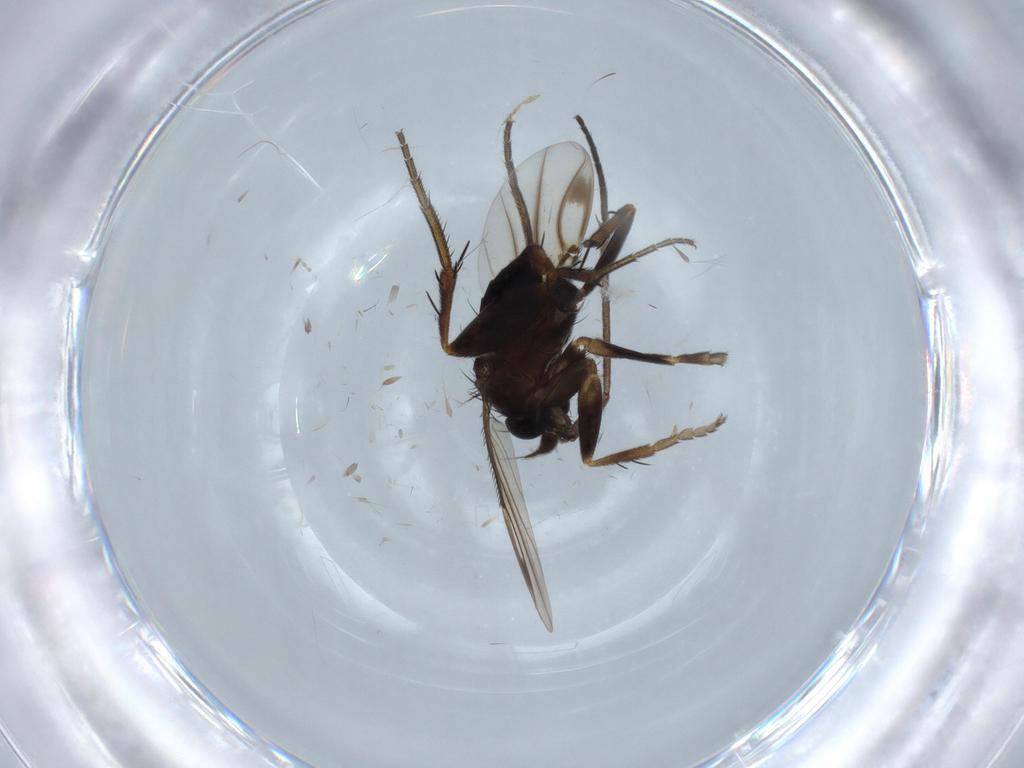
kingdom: Animalia
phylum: Arthropoda
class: Insecta
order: Diptera
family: Phoridae
